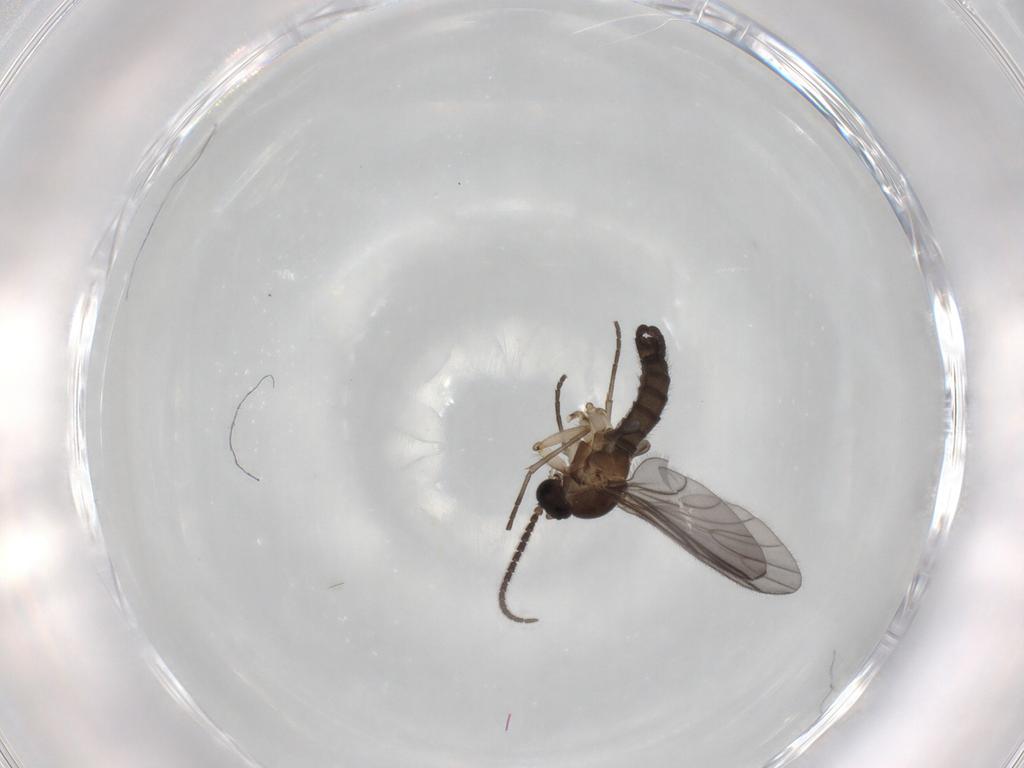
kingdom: Animalia
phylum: Arthropoda
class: Insecta
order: Diptera
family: Sciaridae
